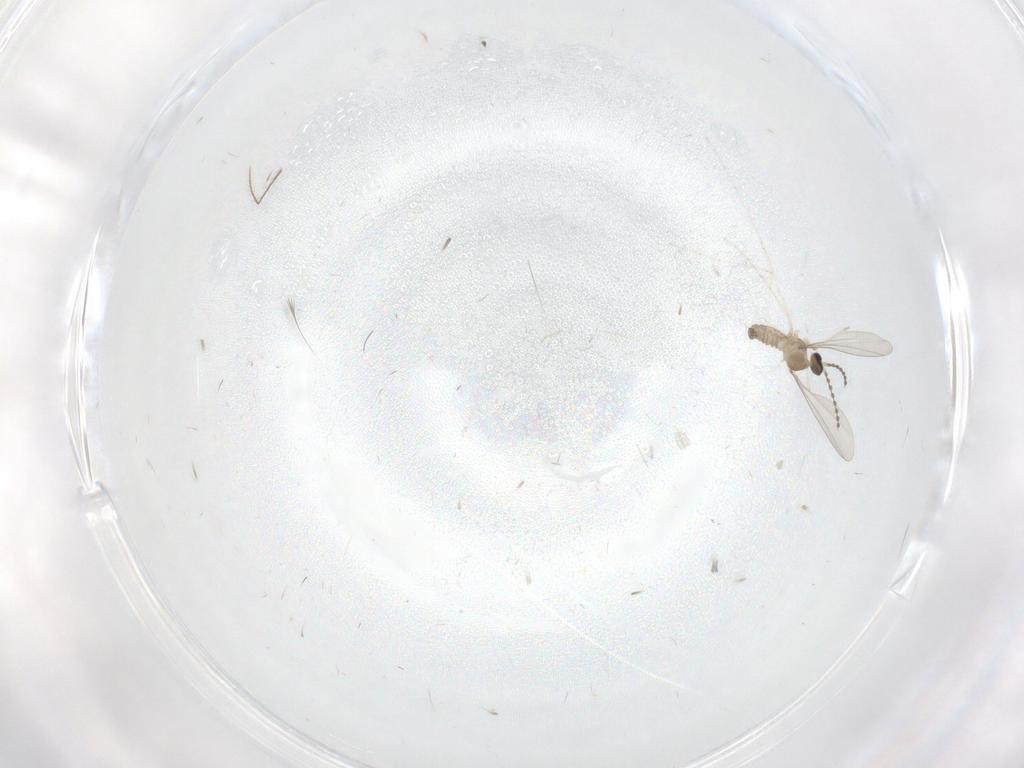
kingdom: Animalia
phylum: Arthropoda
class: Insecta
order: Diptera
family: Cecidomyiidae
